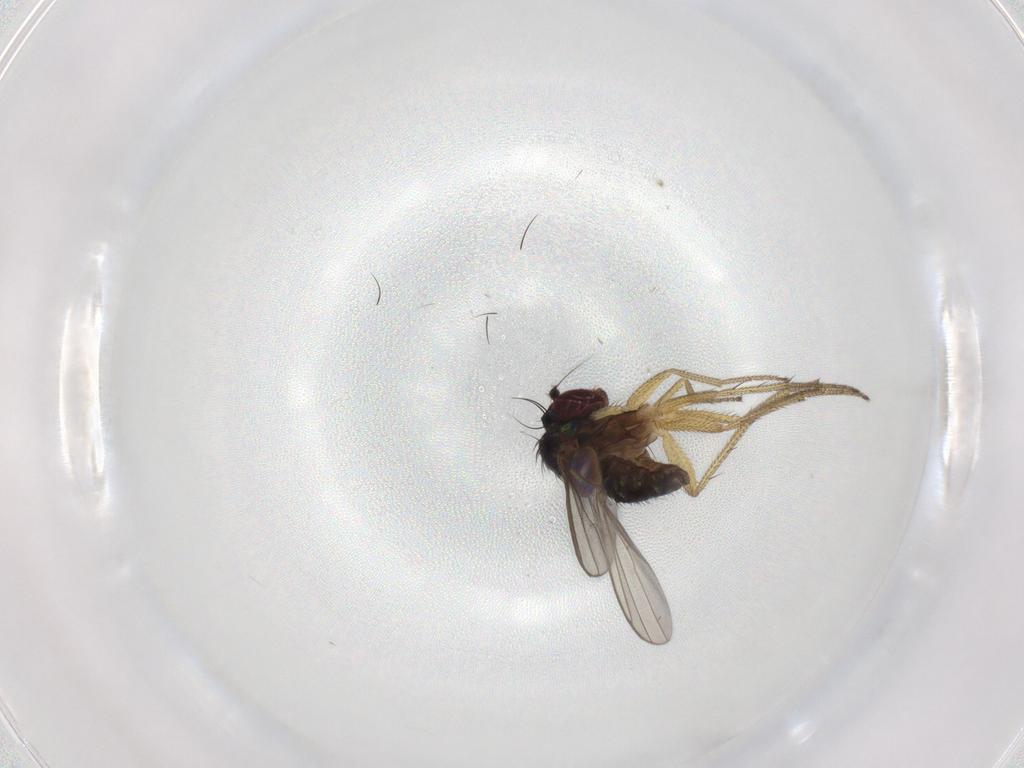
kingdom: Animalia
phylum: Arthropoda
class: Insecta
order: Diptera
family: Dolichopodidae
